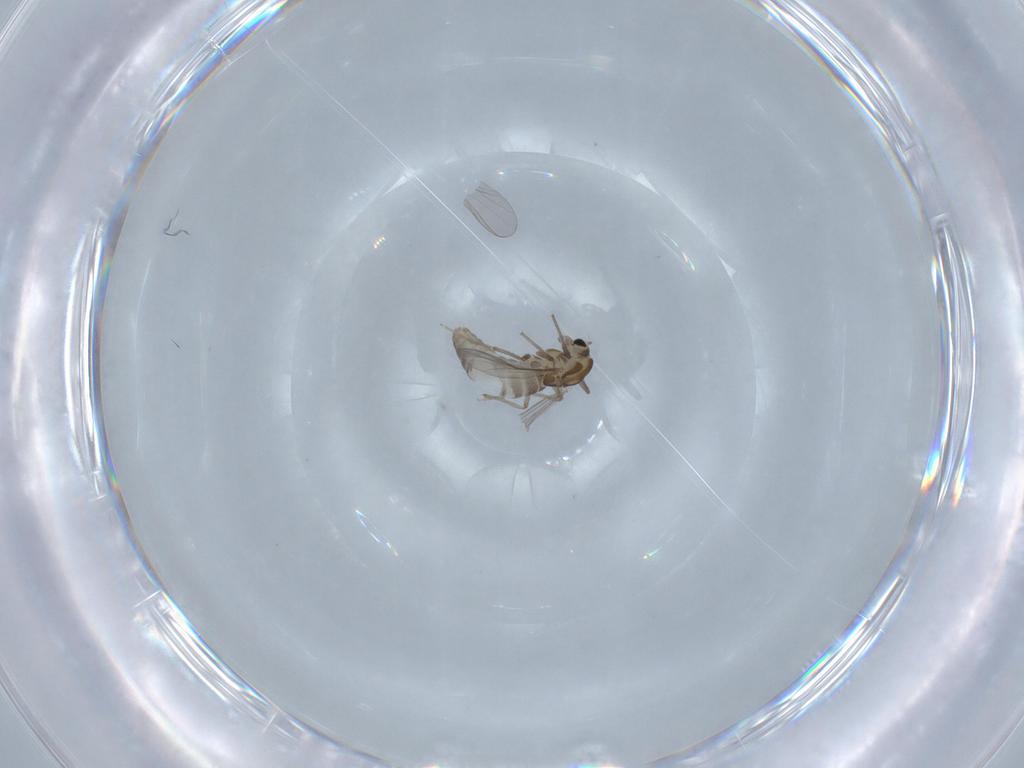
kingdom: Animalia
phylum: Arthropoda
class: Insecta
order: Diptera
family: Chironomidae
